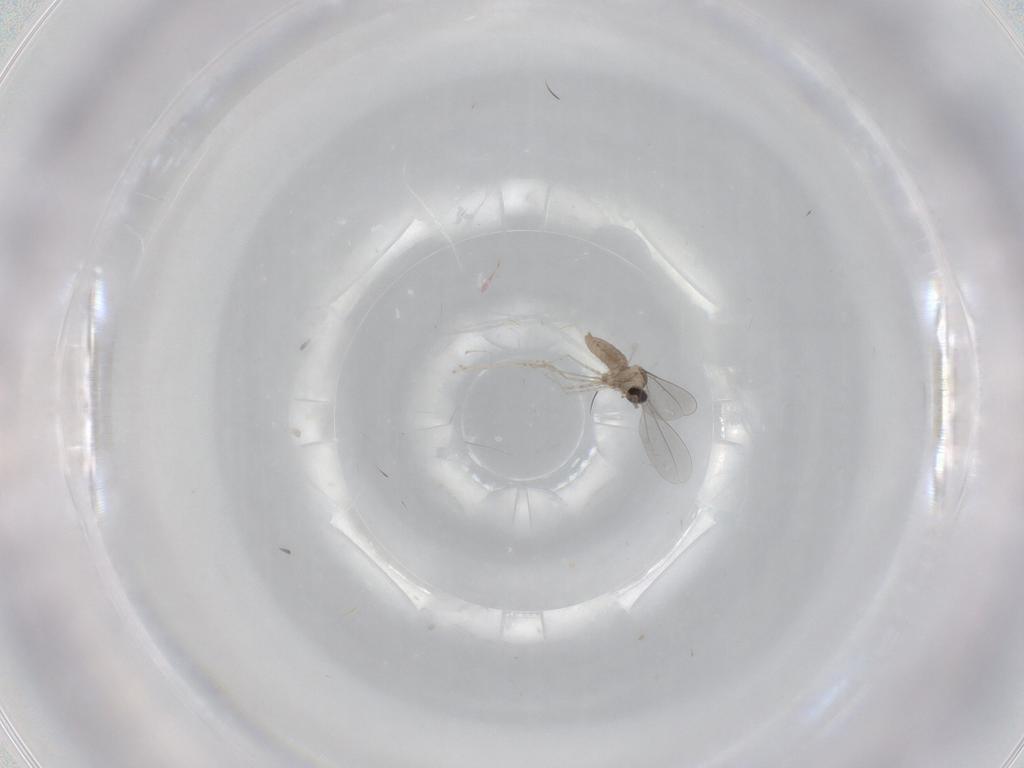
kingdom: Animalia
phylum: Arthropoda
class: Insecta
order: Diptera
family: Cecidomyiidae
